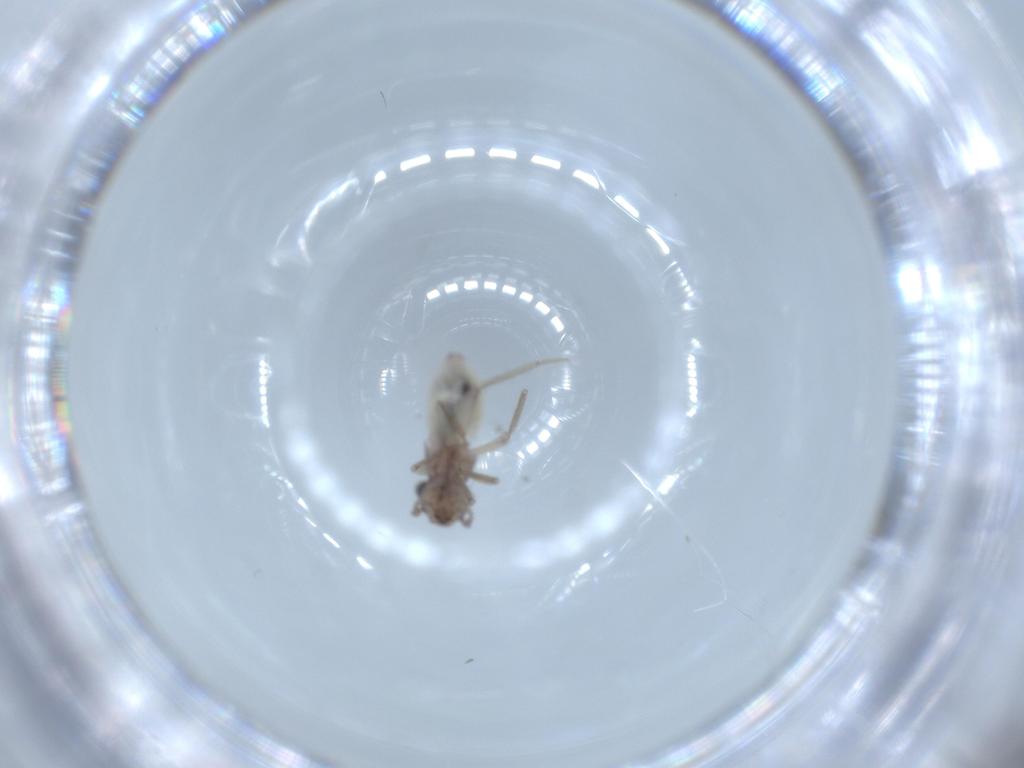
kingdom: Animalia
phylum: Arthropoda
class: Insecta
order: Psocodea
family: Lepidopsocidae
